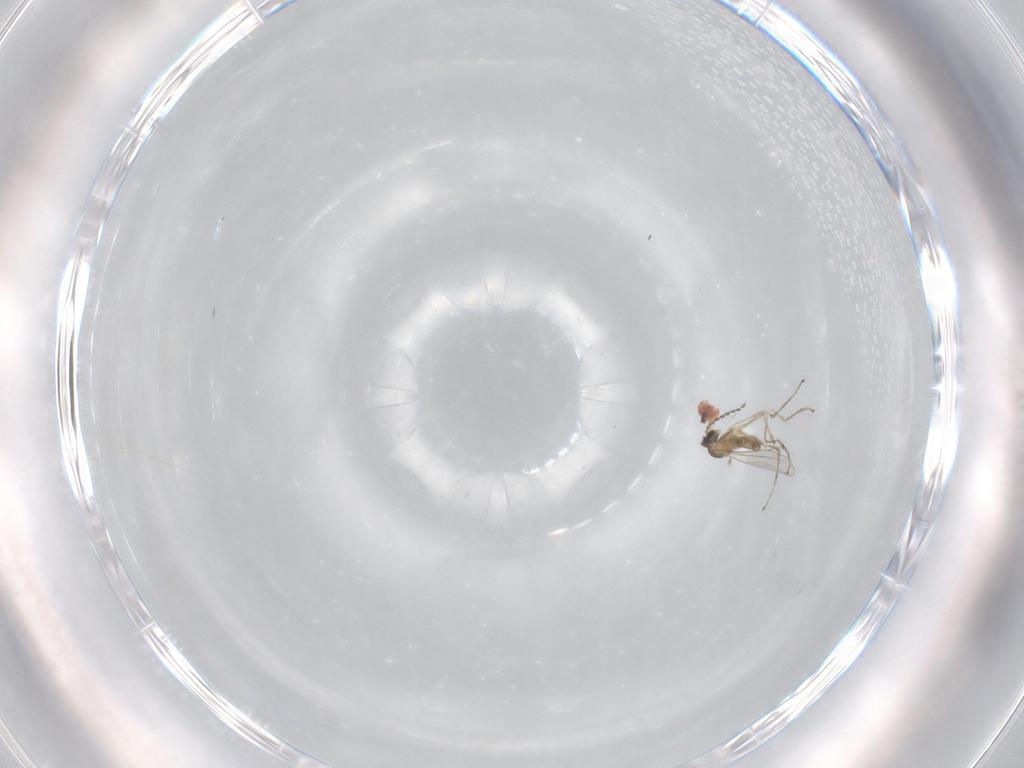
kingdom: Animalia
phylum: Arthropoda
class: Insecta
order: Diptera
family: Cecidomyiidae
